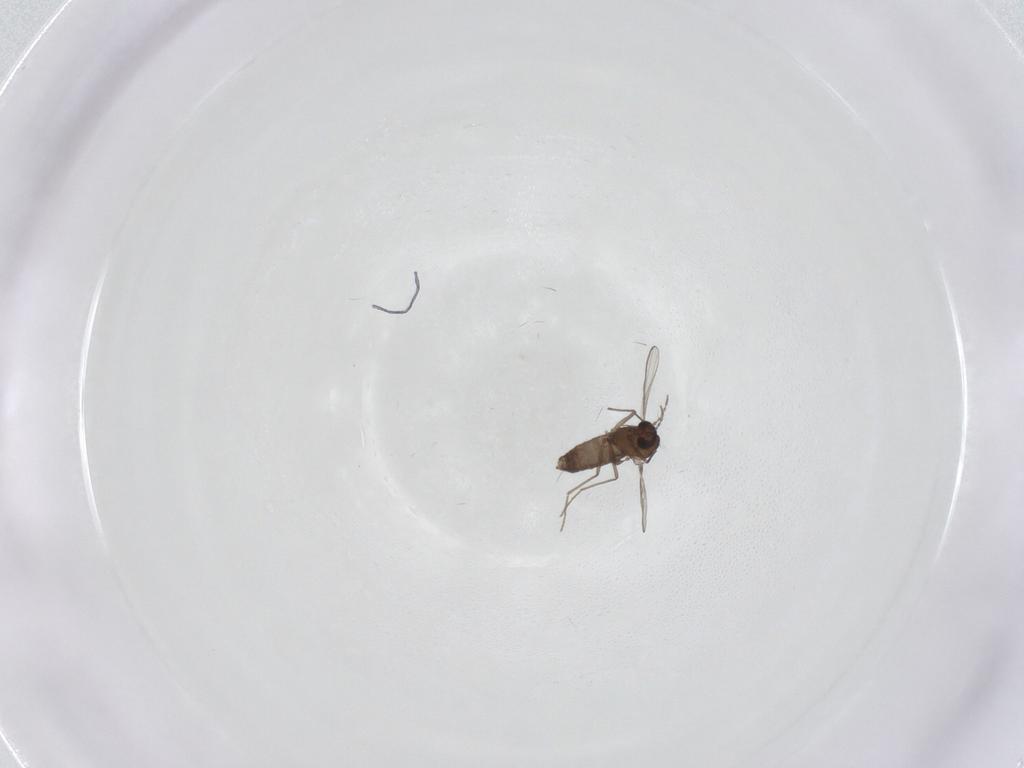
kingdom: Animalia
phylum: Arthropoda
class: Insecta
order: Diptera
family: Chironomidae
